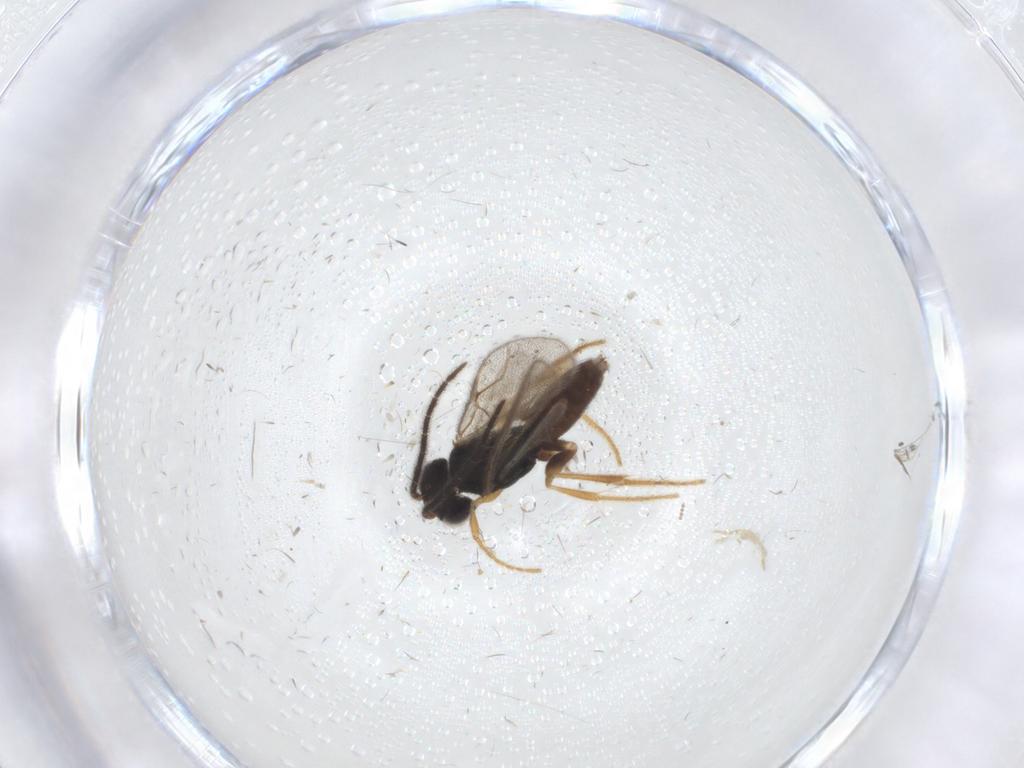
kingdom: Animalia
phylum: Arthropoda
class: Insecta
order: Hymenoptera
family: Dryinidae
